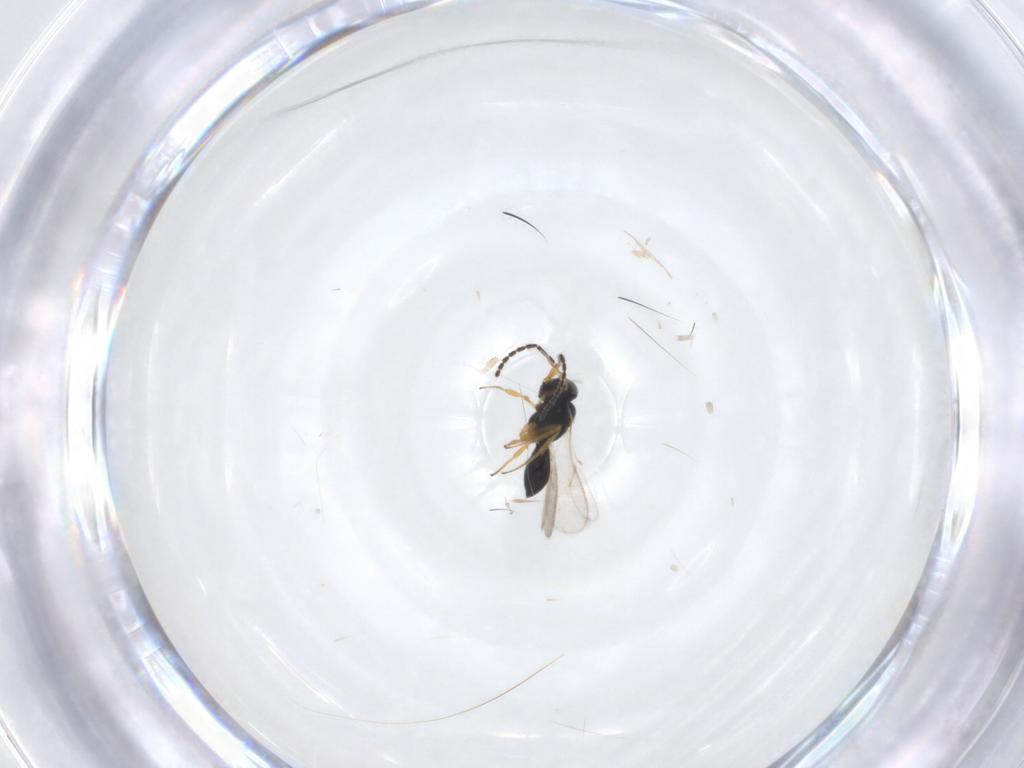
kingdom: Animalia
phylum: Arthropoda
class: Insecta
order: Hymenoptera
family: Scelionidae
